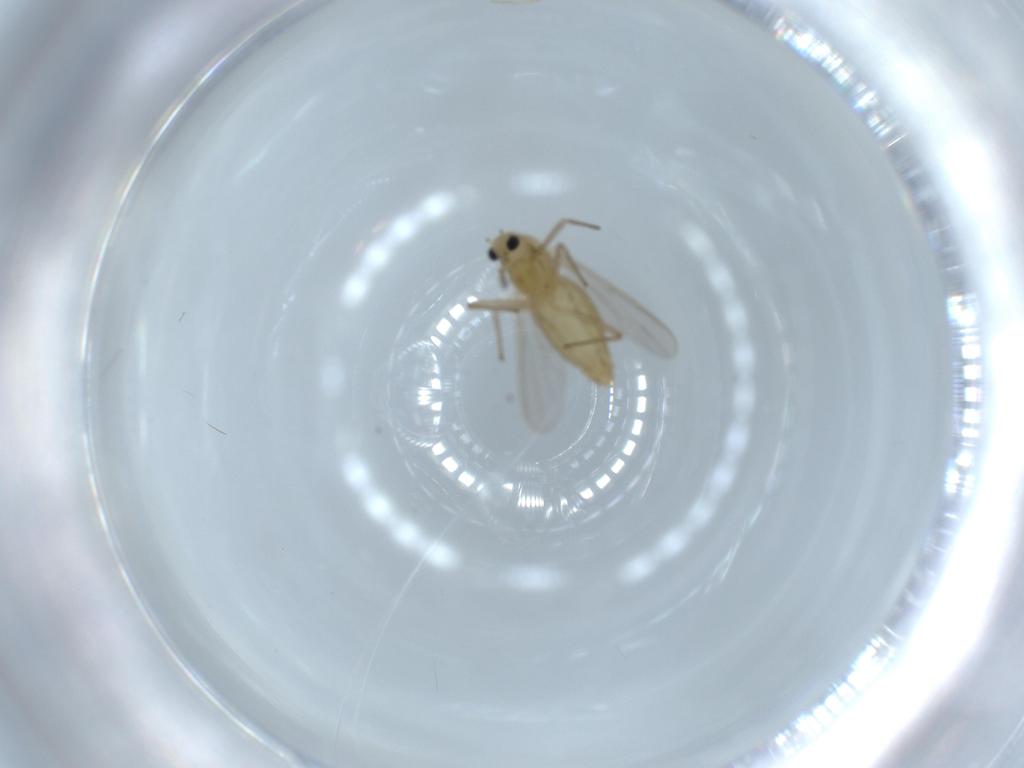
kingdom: Animalia
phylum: Arthropoda
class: Insecta
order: Diptera
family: Chironomidae
